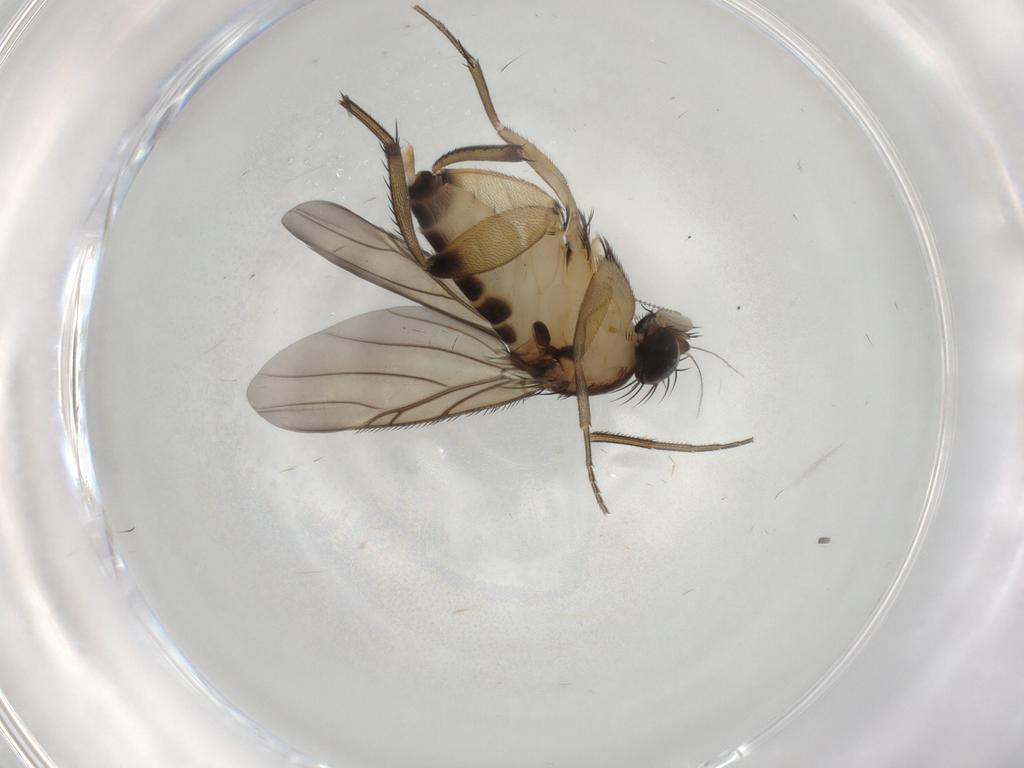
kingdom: Animalia
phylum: Arthropoda
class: Insecta
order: Diptera
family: Phoridae
